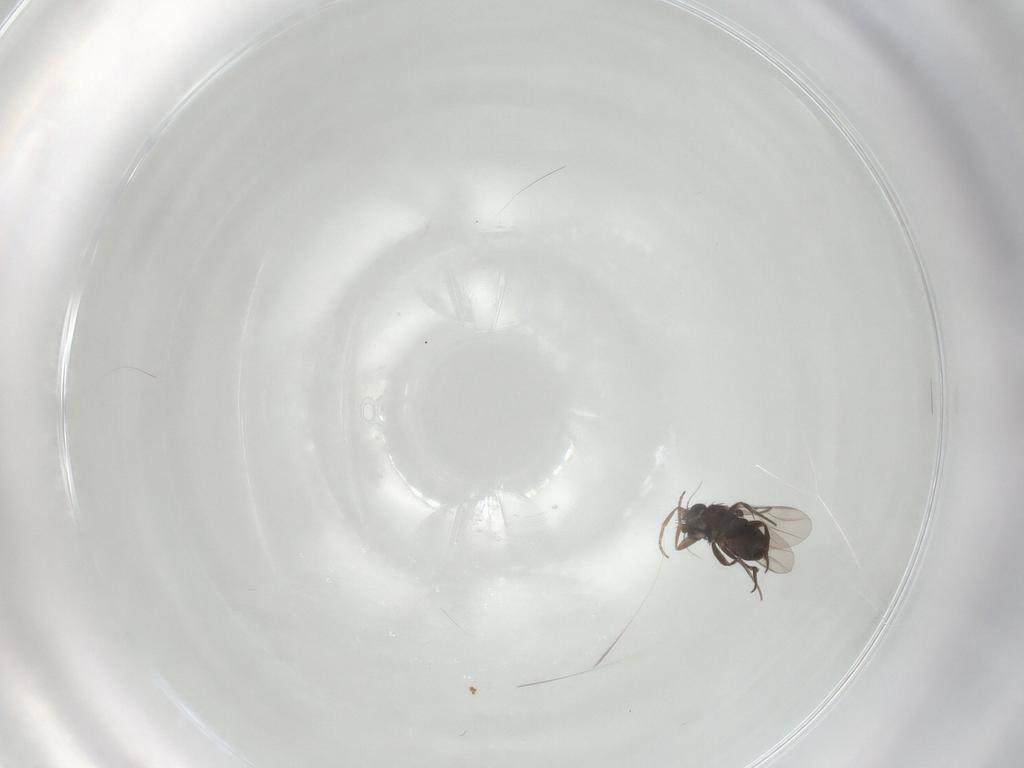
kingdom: Animalia
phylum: Arthropoda
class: Insecta
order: Diptera
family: Phoridae
